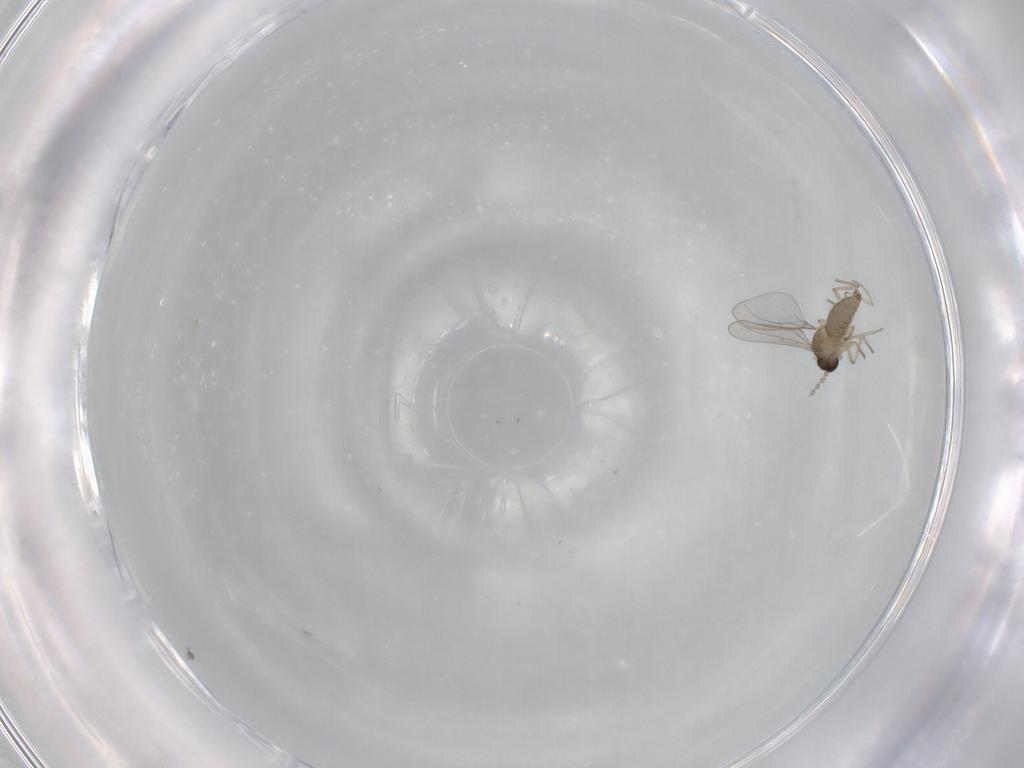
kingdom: Animalia
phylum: Arthropoda
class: Insecta
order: Diptera
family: Cecidomyiidae
